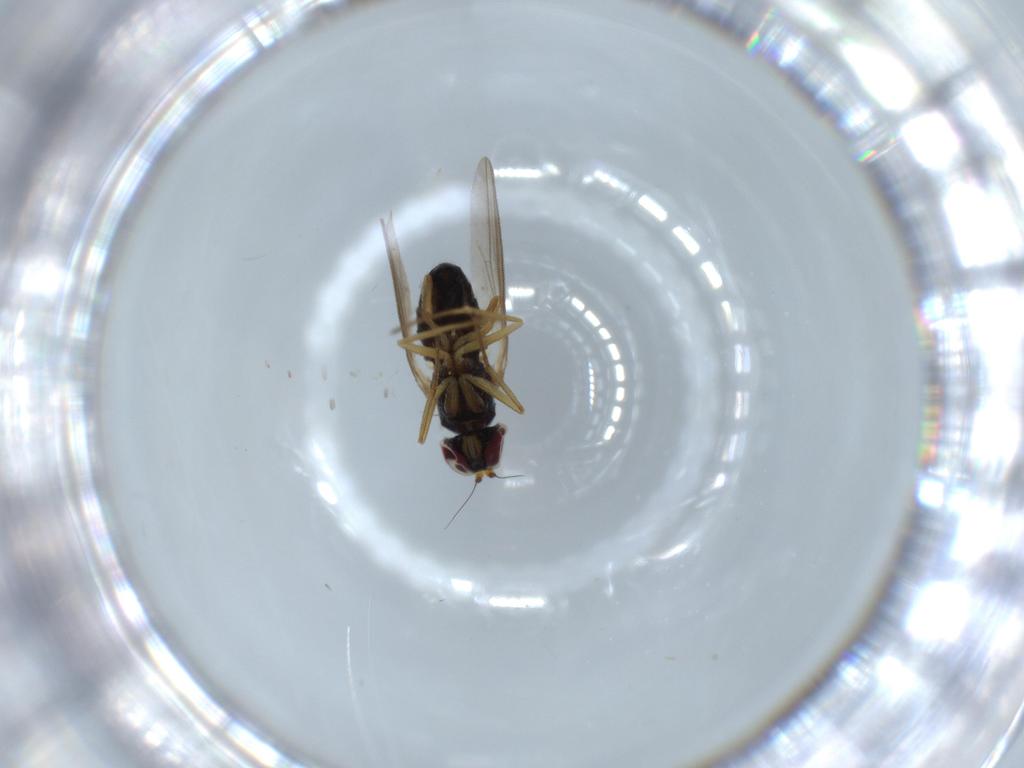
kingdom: Animalia
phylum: Arthropoda
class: Insecta
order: Diptera
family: Dolichopodidae
